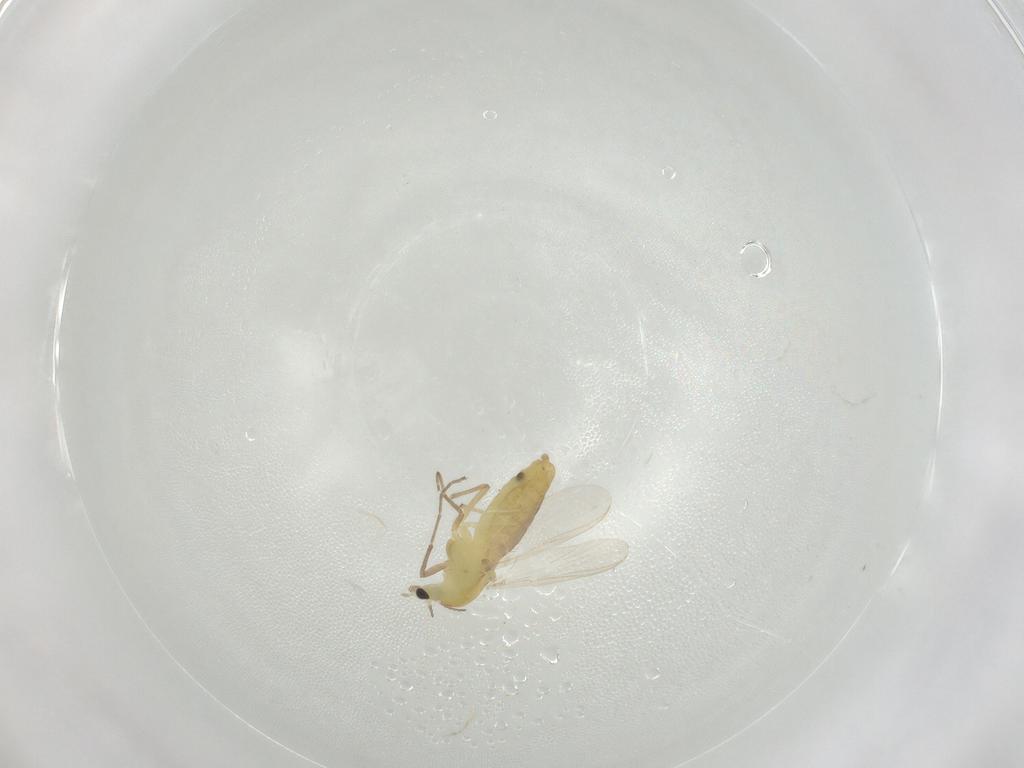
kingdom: Animalia
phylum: Arthropoda
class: Insecta
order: Diptera
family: Chironomidae
